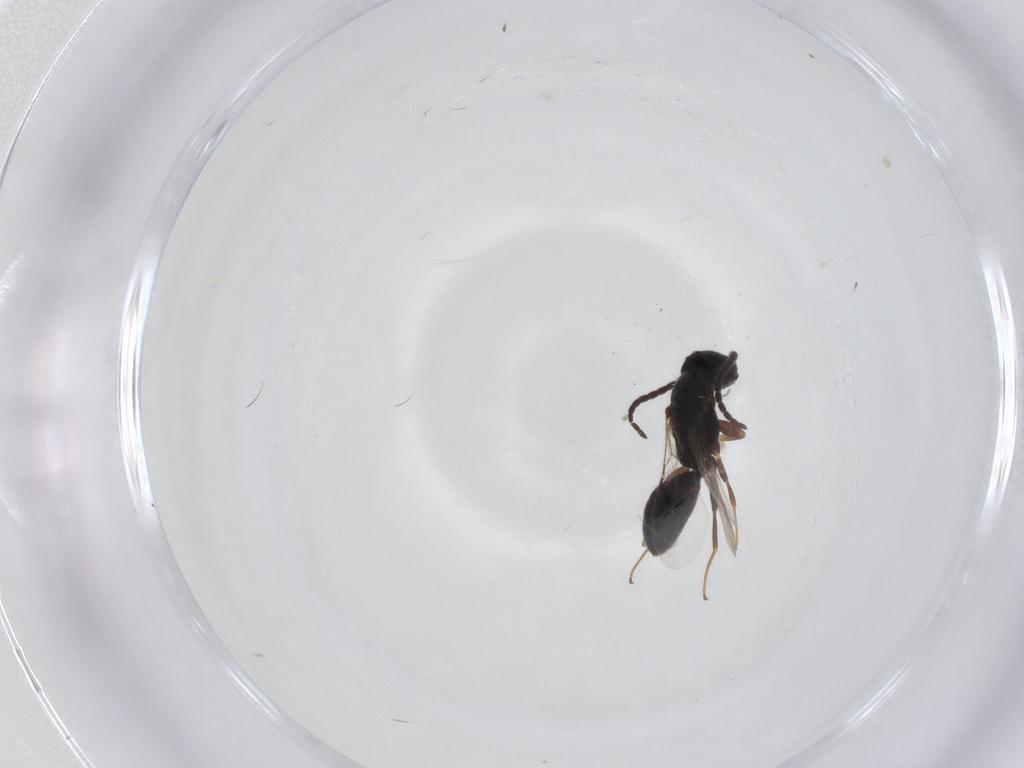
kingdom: Animalia
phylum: Arthropoda
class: Insecta
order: Hymenoptera
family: Bethylidae
